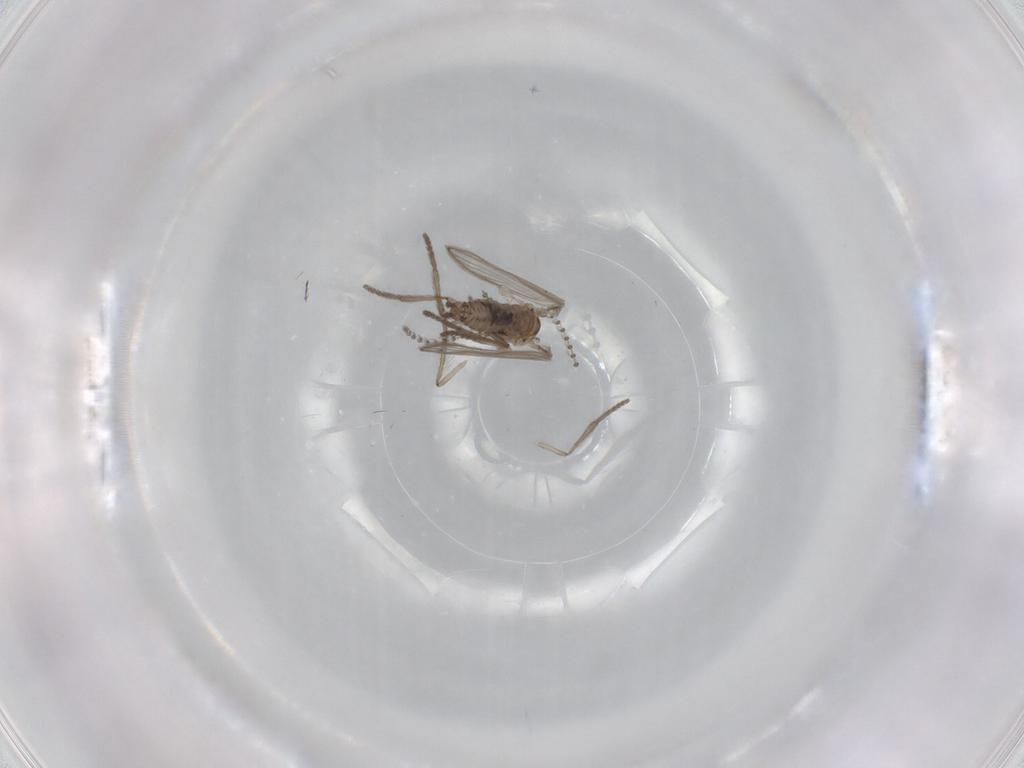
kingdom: Animalia
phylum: Arthropoda
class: Insecta
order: Diptera
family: Psychodidae
